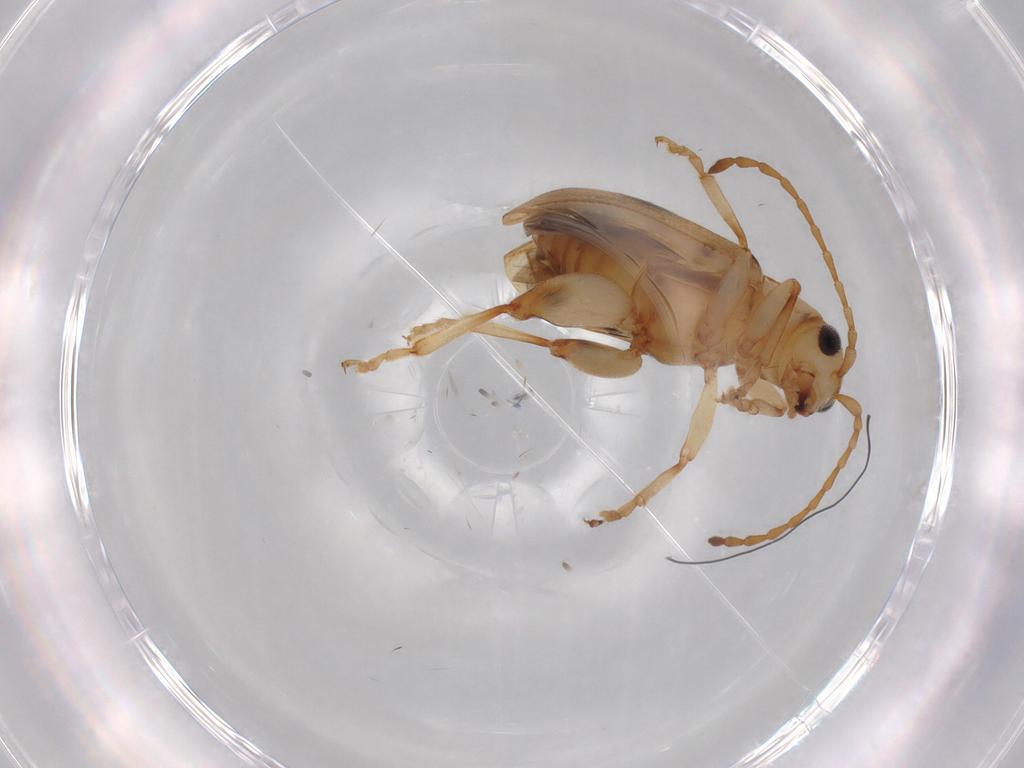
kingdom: Animalia
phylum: Arthropoda
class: Insecta
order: Coleoptera
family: Chrysomelidae
